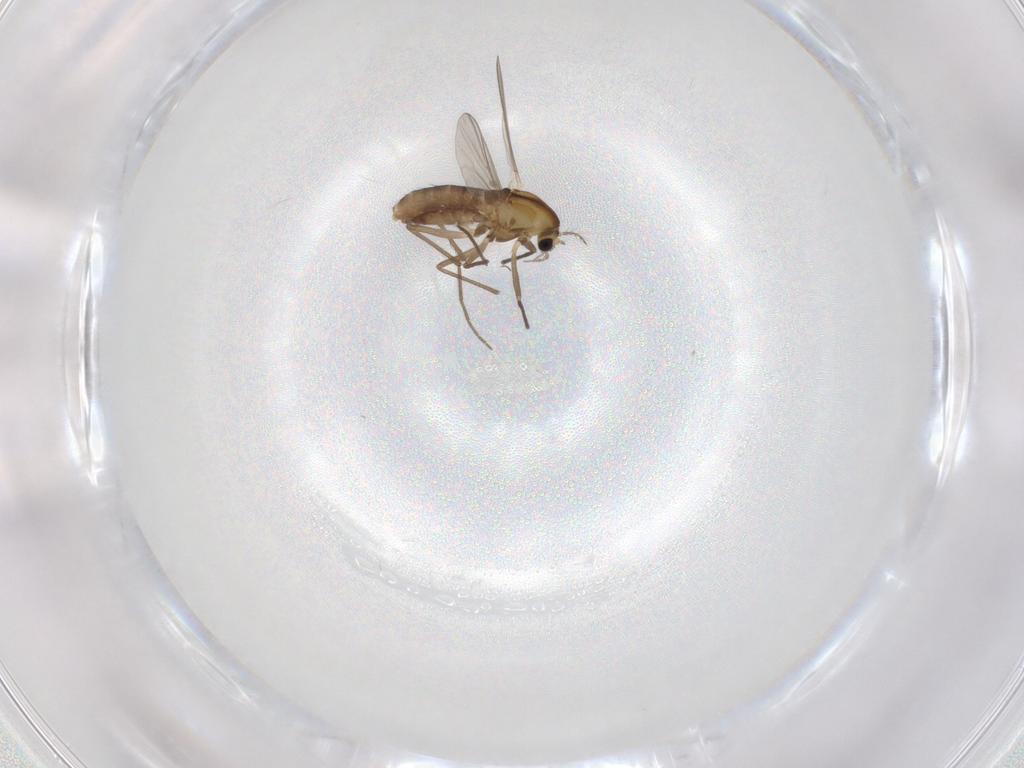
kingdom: Animalia
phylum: Arthropoda
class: Insecta
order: Diptera
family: Chironomidae
